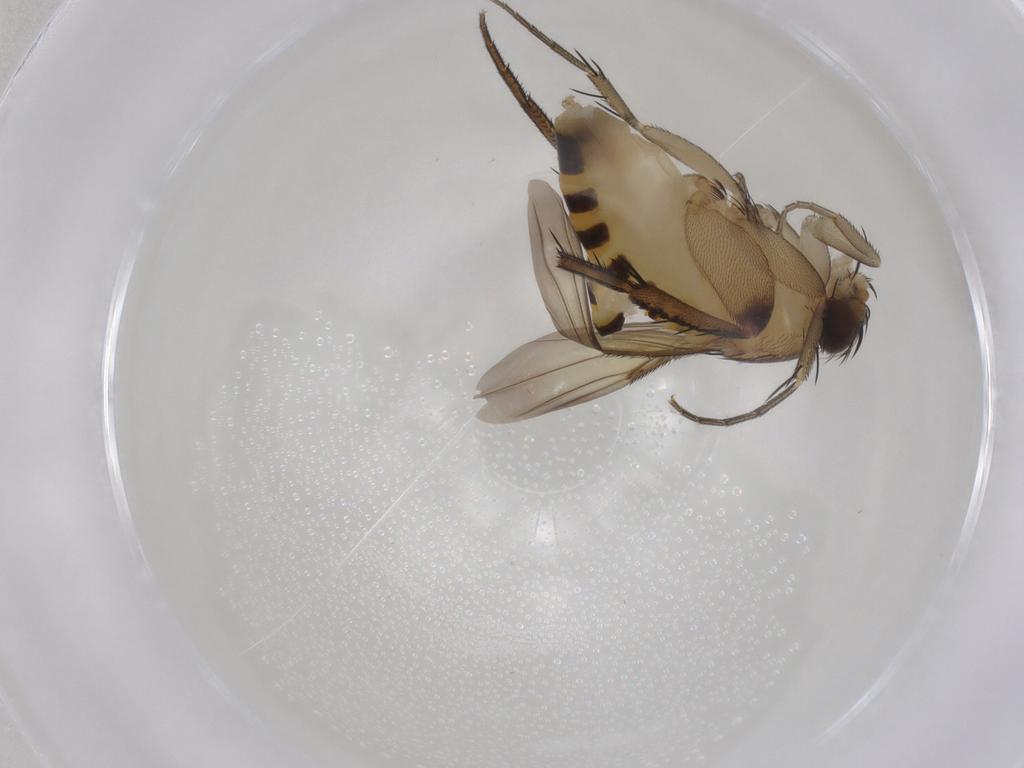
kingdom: Animalia
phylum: Arthropoda
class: Insecta
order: Diptera
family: Phoridae
